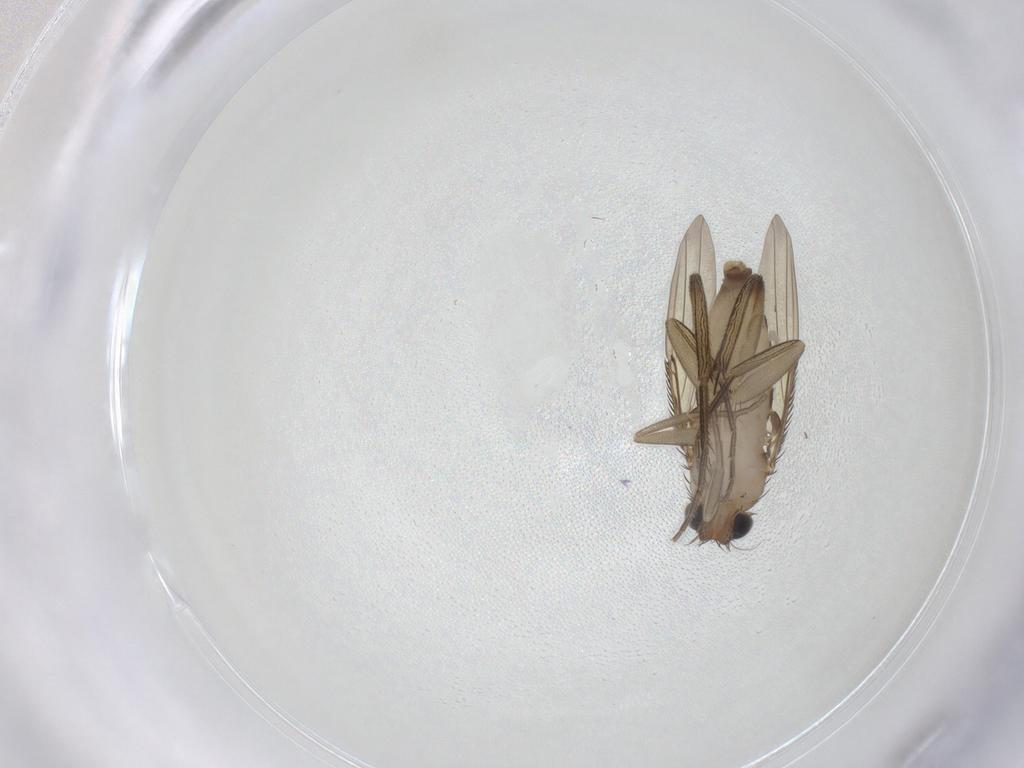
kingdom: Animalia
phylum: Arthropoda
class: Insecta
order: Diptera
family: Phoridae
